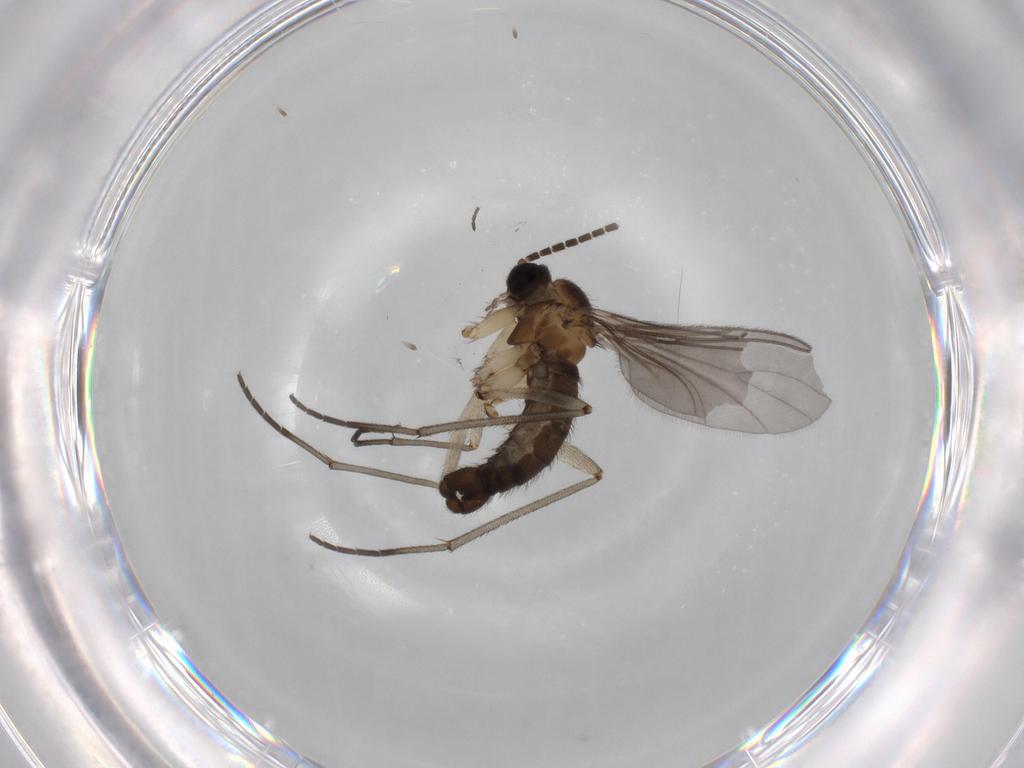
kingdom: Animalia
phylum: Arthropoda
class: Insecta
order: Diptera
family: Sciaridae
